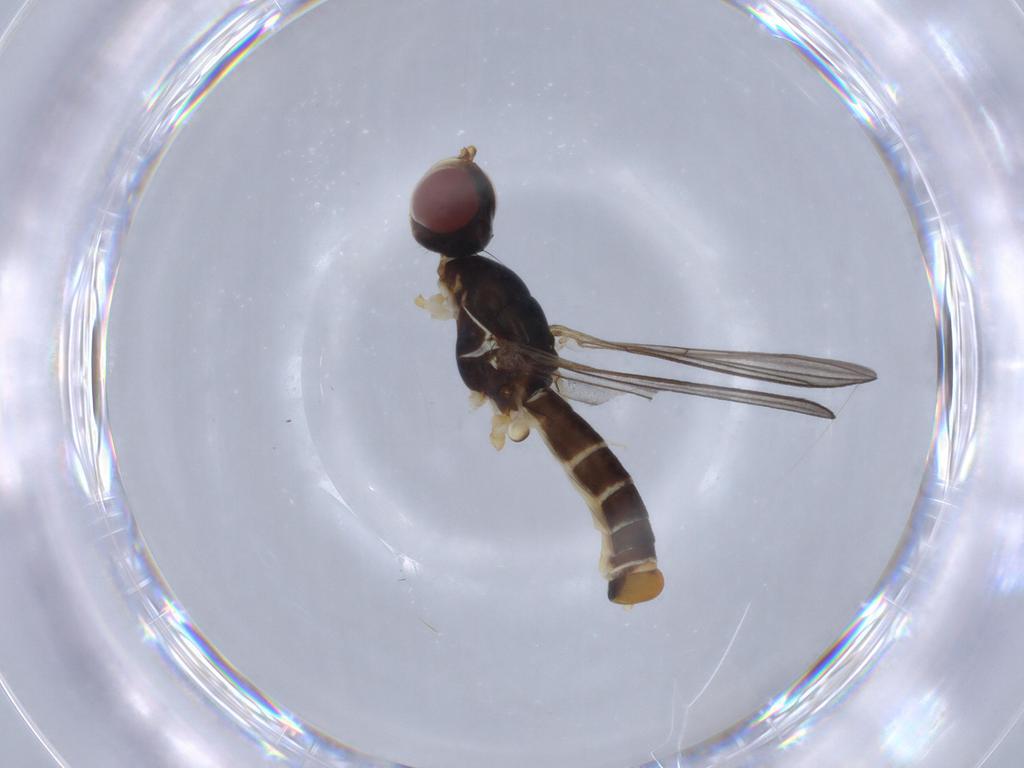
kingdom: Animalia
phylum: Arthropoda
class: Insecta
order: Diptera
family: Micropezidae
